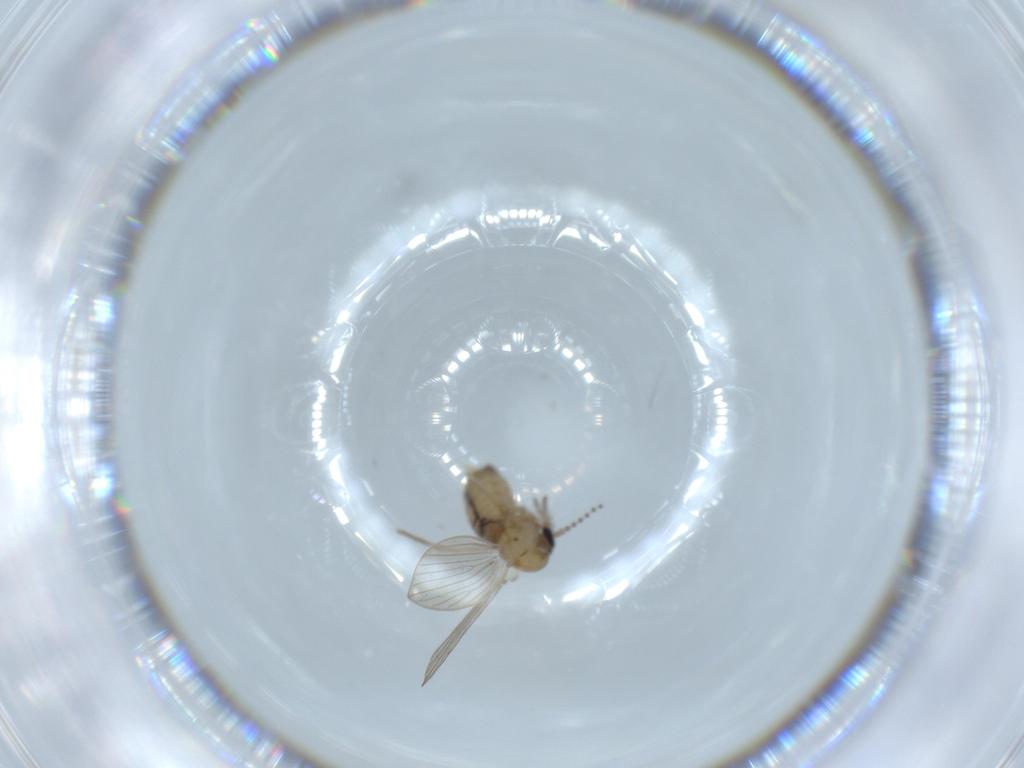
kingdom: Animalia
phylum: Arthropoda
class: Insecta
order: Diptera
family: Psychodidae
